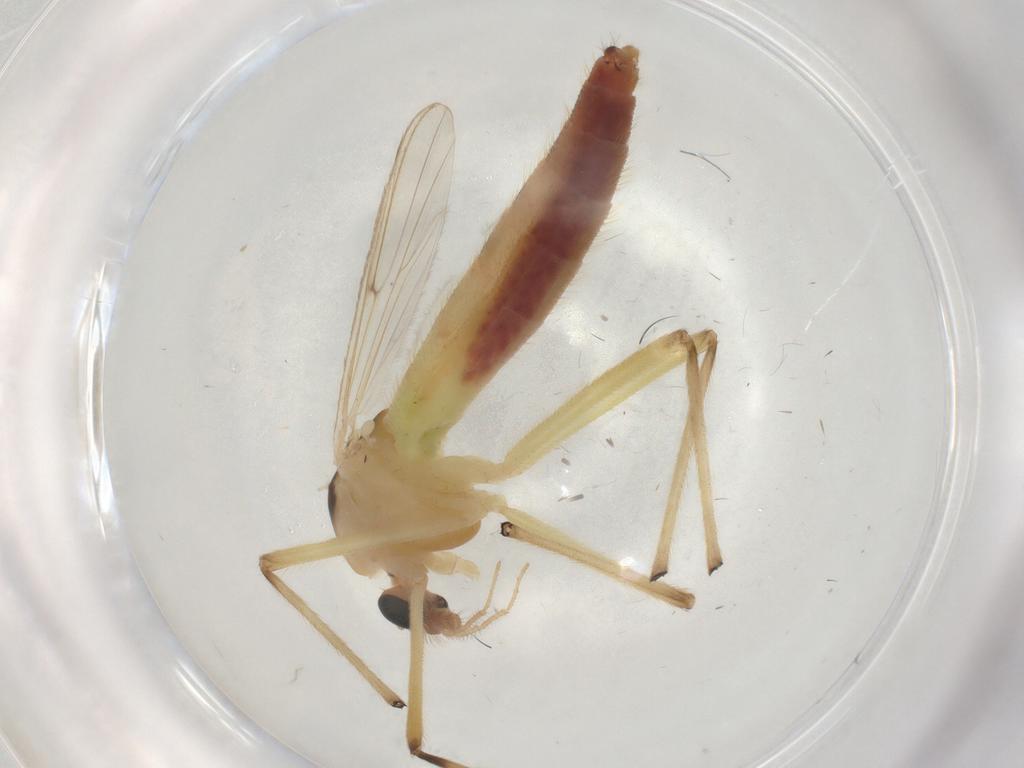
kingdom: Animalia
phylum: Arthropoda
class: Insecta
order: Diptera
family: Chironomidae
